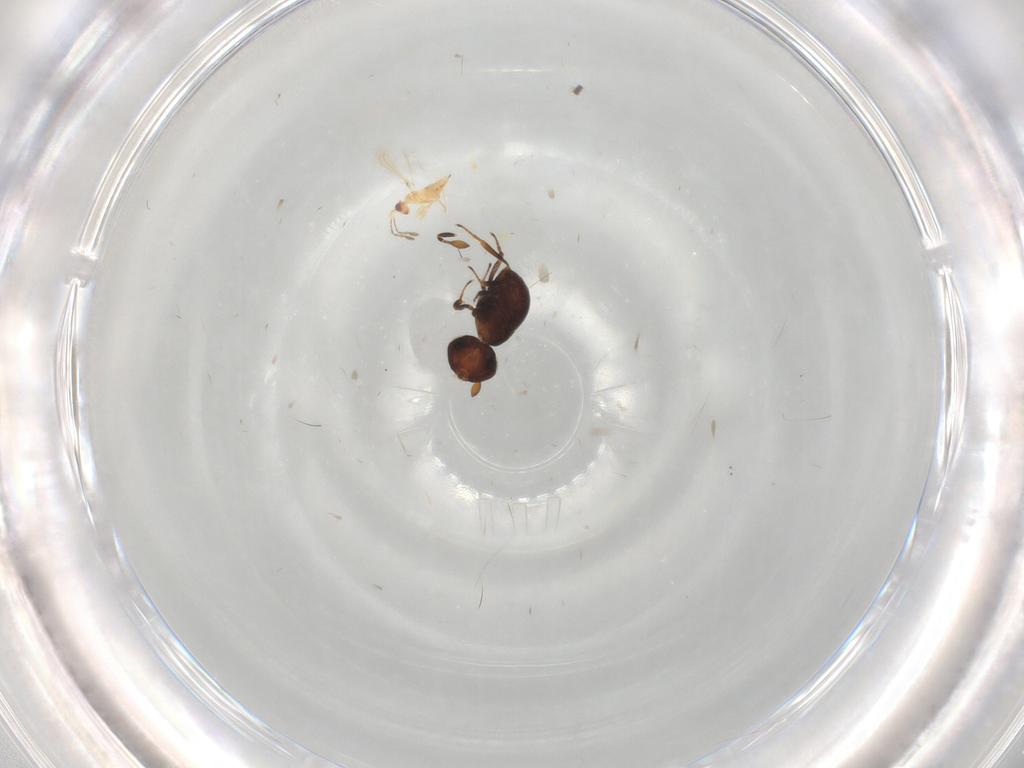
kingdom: Animalia
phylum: Arthropoda
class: Insecta
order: Hymenoptera
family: Scelionidae
